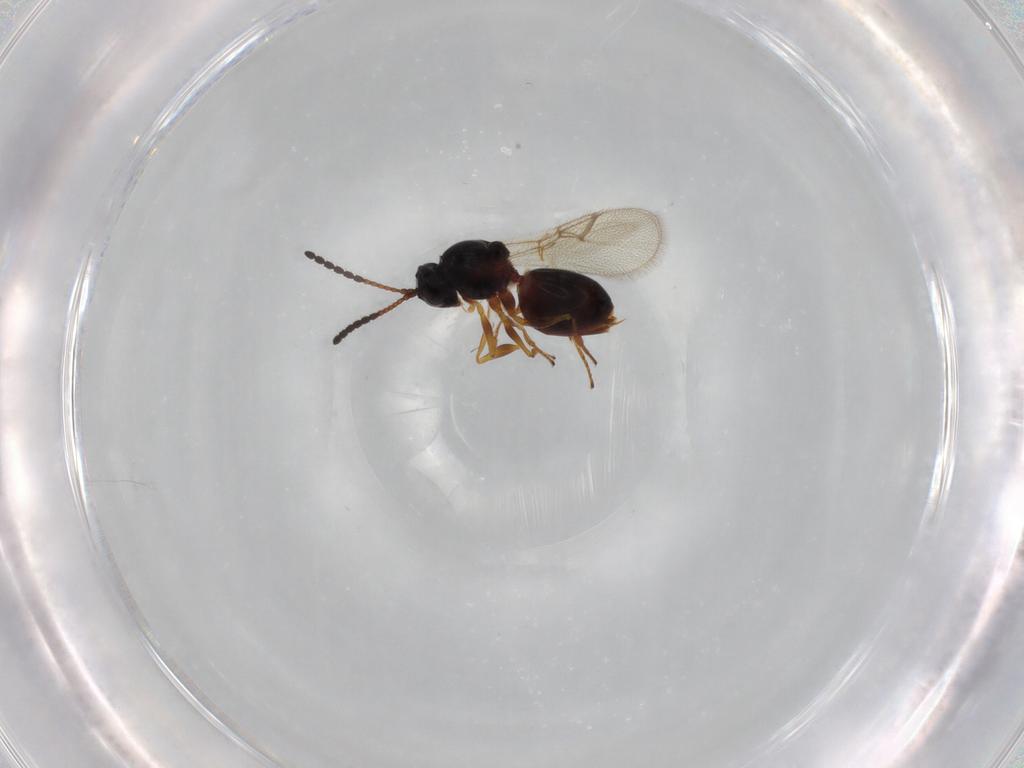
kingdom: Animalia
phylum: Arthropoda
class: Insecta
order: Hymenoptera
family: Figitidae
